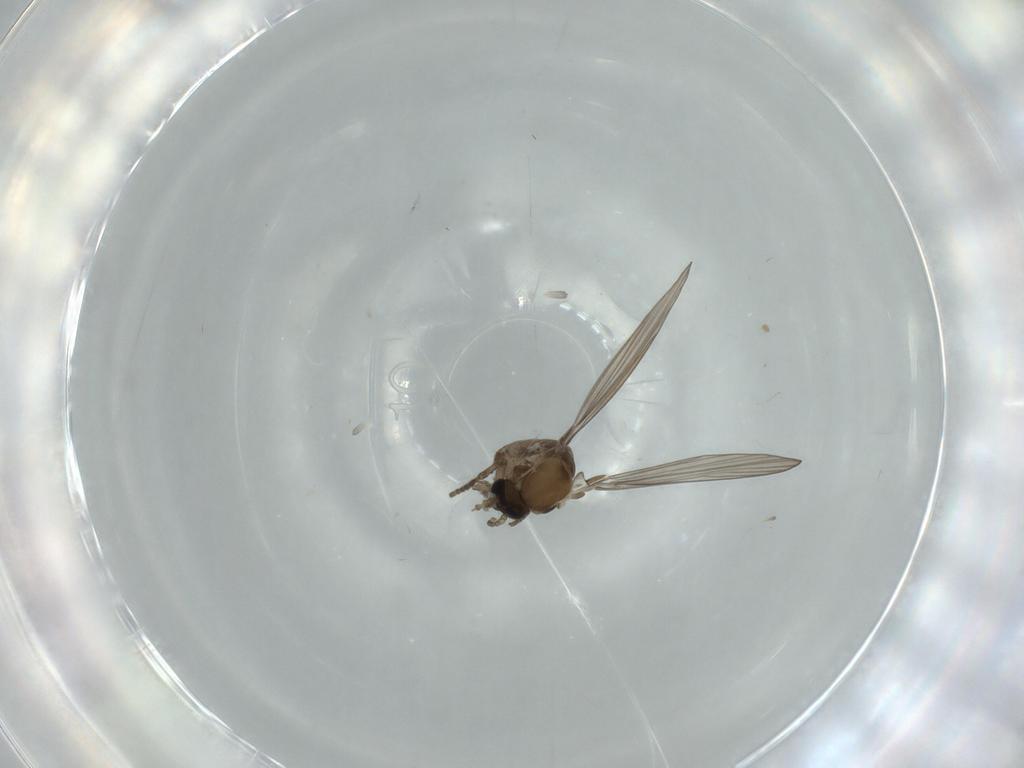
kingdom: Animalia
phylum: Arthropoda
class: Insecta
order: Diptera
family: Psychodidae
